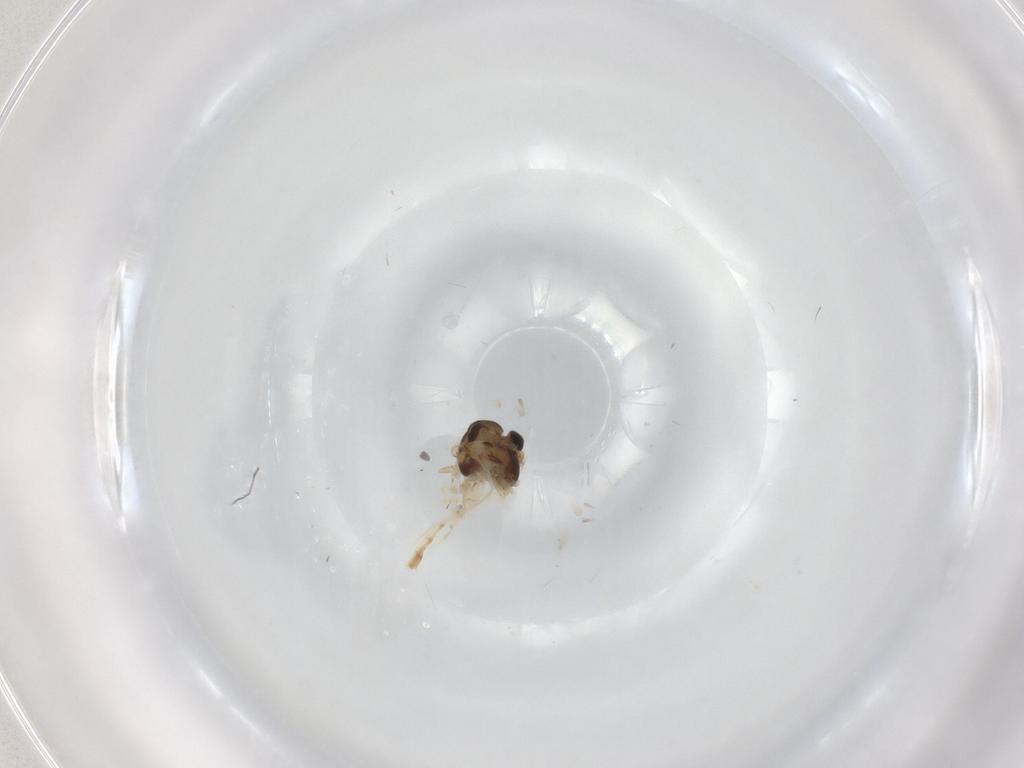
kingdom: Animalia
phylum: Arthropoda
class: Insecta
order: Diptera
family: Chironomidae
